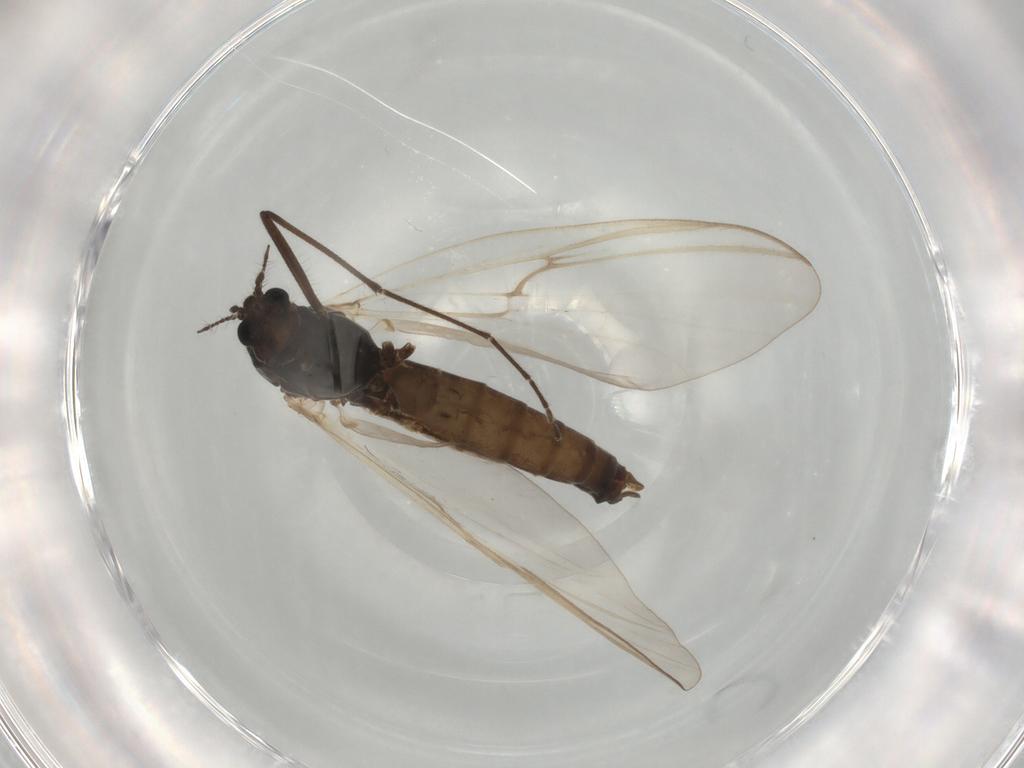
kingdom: Animalia
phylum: Arthropoda
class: Insecta
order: Diptera
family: Chironomidae
